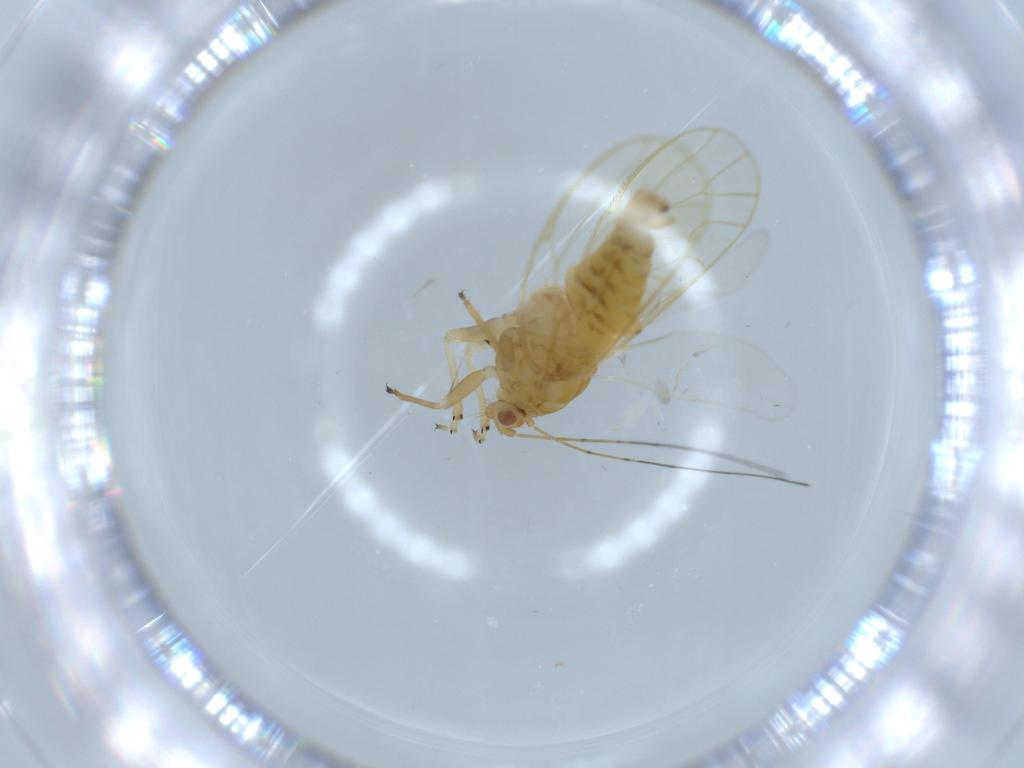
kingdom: Animalia
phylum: Arthropoda
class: Insecta
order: Hemiptera
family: Psyllidae
